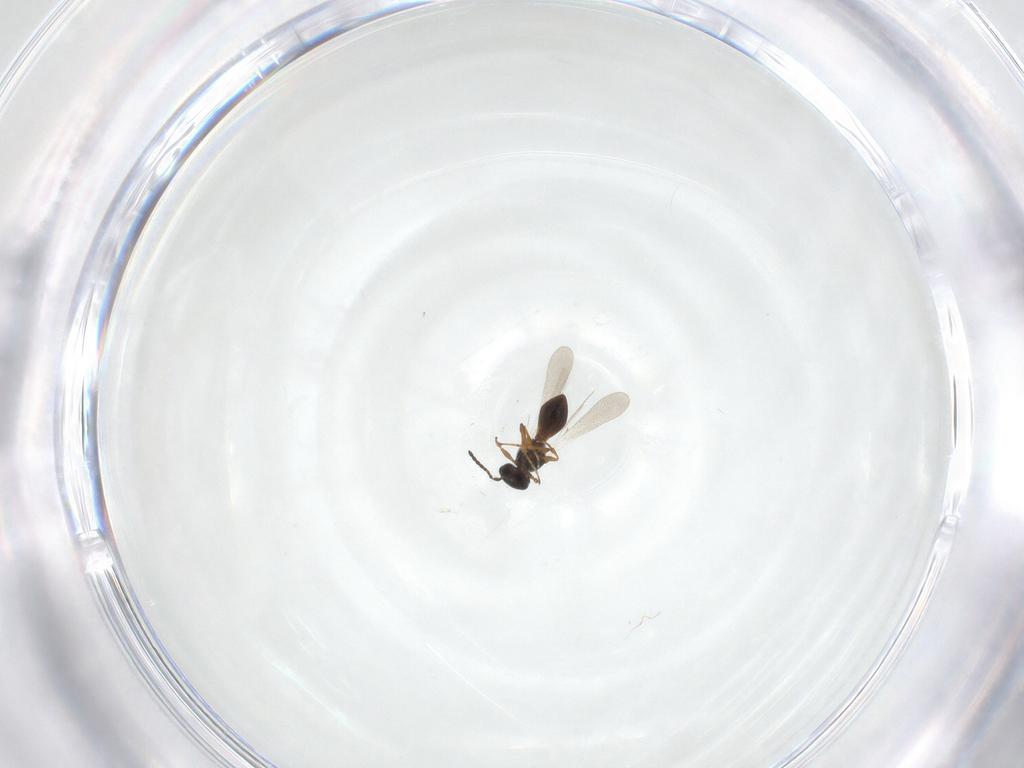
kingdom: Animalia
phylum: Arthropoda
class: Insecta
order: Hymenoptera
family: Platygastridae
